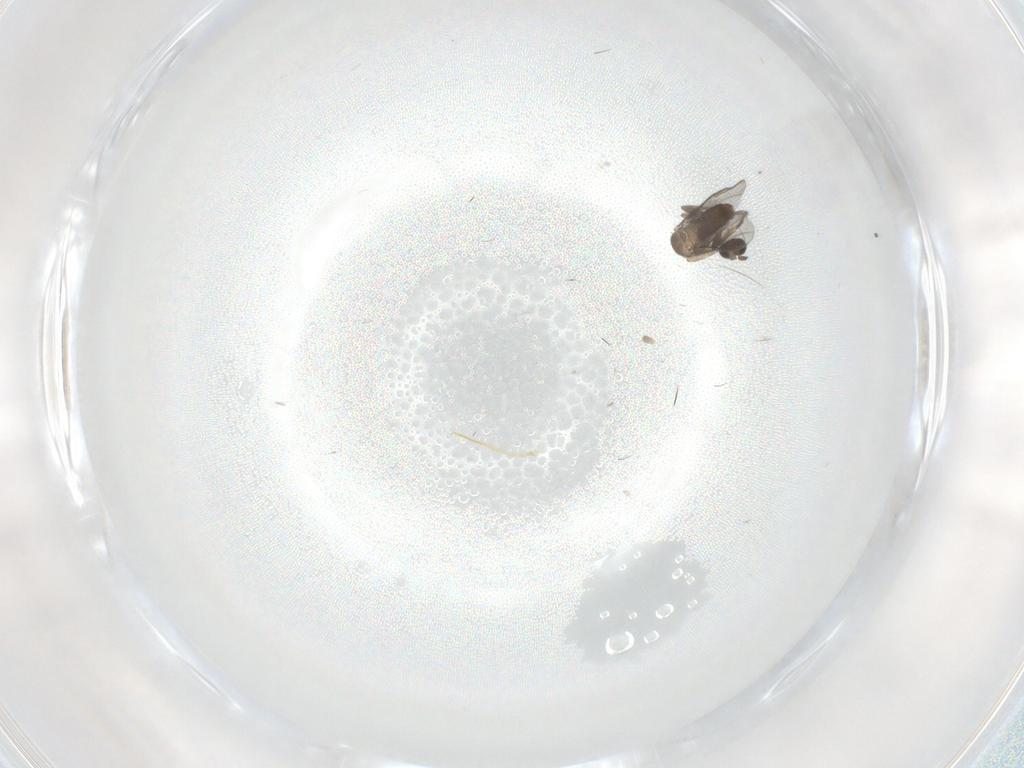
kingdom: Animalia
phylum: Arthropoda
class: Insecta
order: Diptera
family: Tabanidae
